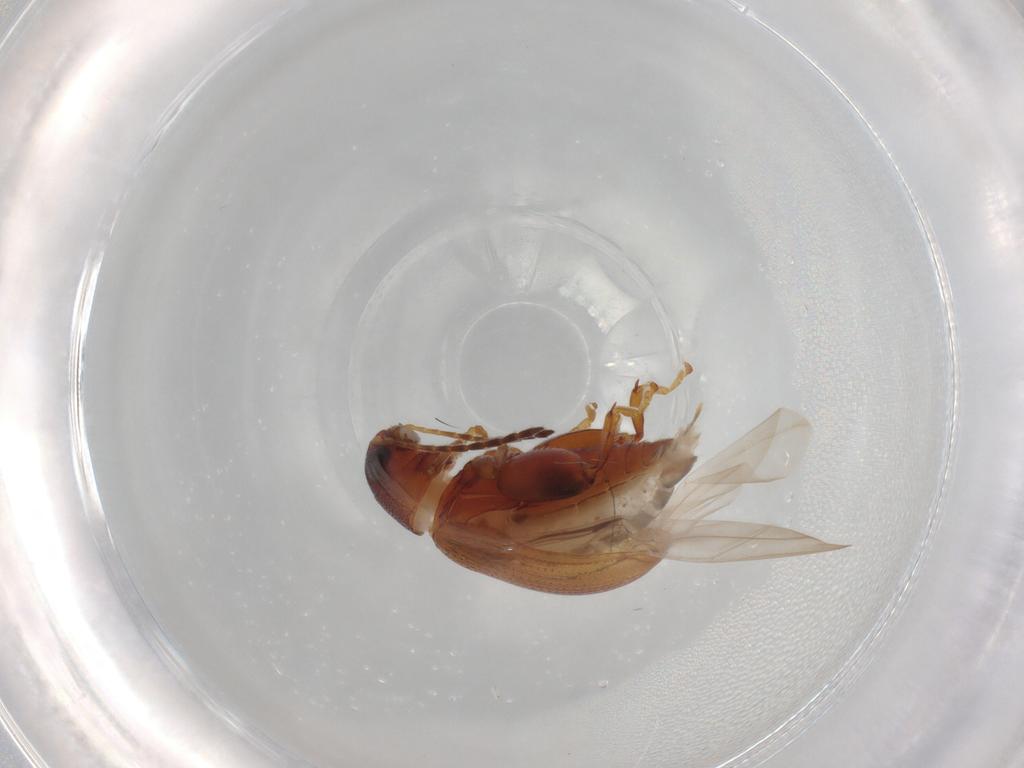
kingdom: Animalia
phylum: Arthropoda
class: Insecta
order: Coleoptera
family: Chrysomelidae
